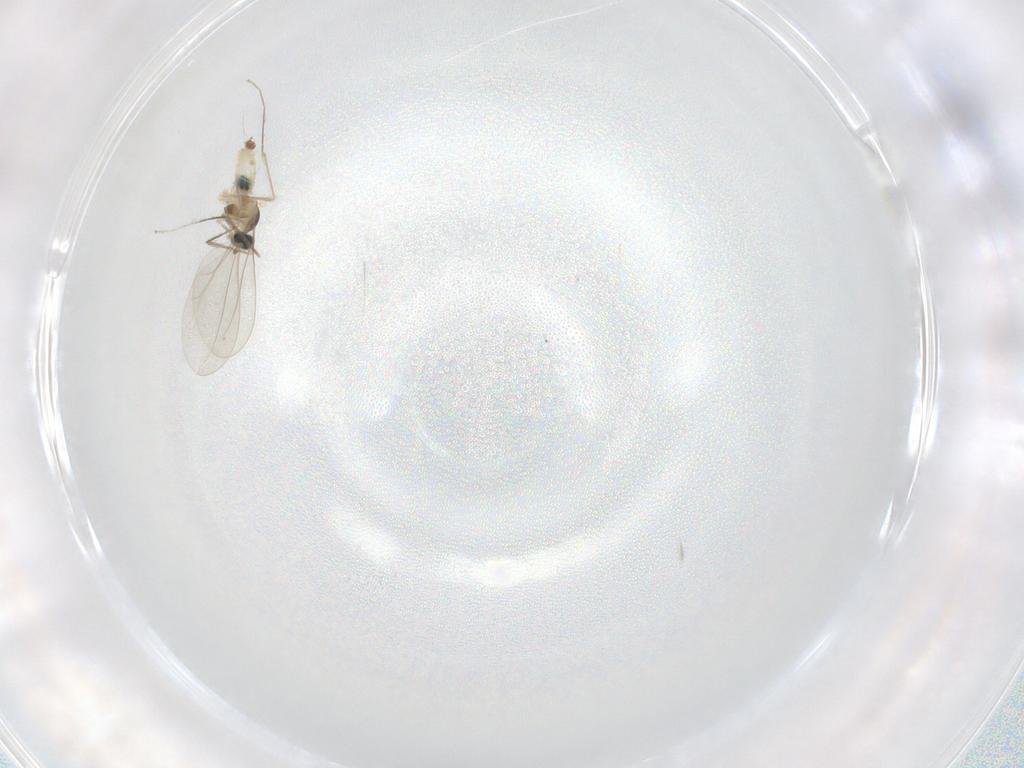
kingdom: Animalia
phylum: Arthropoda
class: Insecta
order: Diptera
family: Cecidomyiidae
